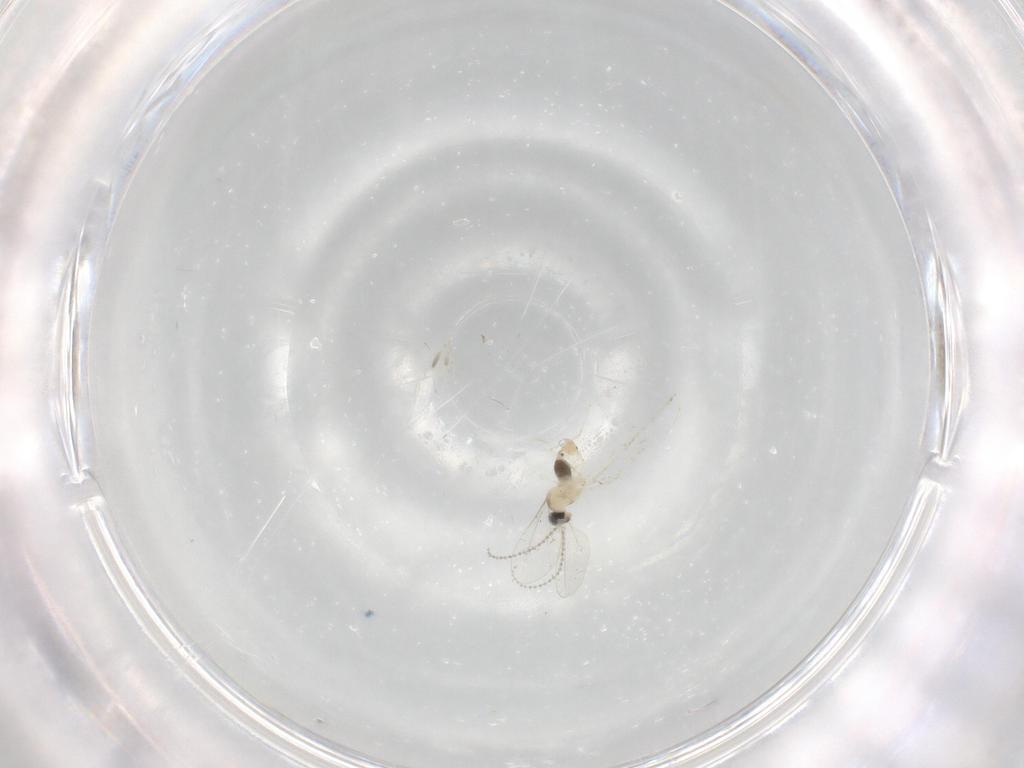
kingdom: Animalia
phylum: Arthropoda
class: Insecta
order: Diptera
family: Cecidomyiidae
